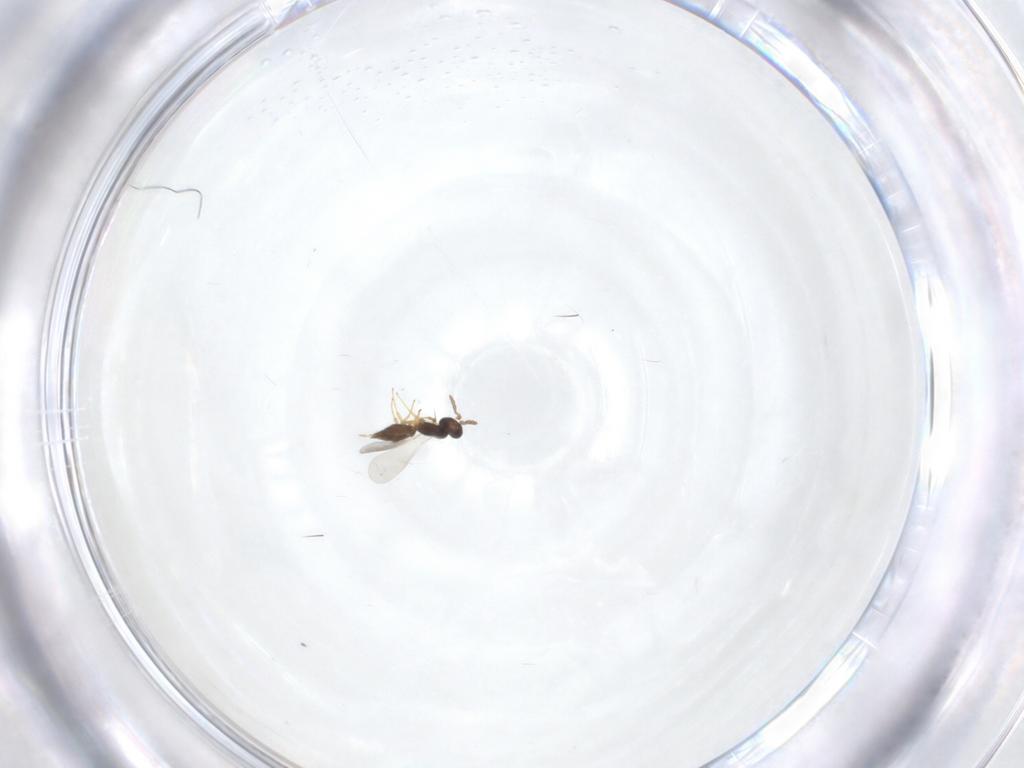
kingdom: Animalia
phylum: Arthropoda
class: Insecta
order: Hymenoptera
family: Platygastridae
